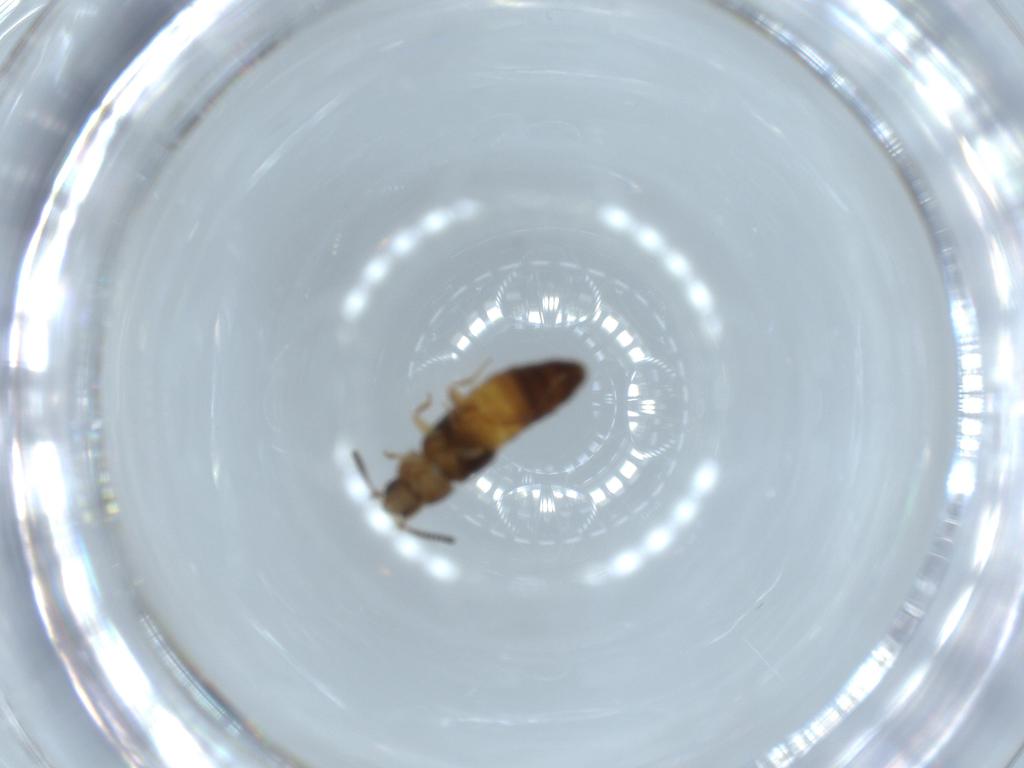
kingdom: Animalia
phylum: Arthropoda
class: Insecta
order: Coleoptera
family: Staphylinidae
